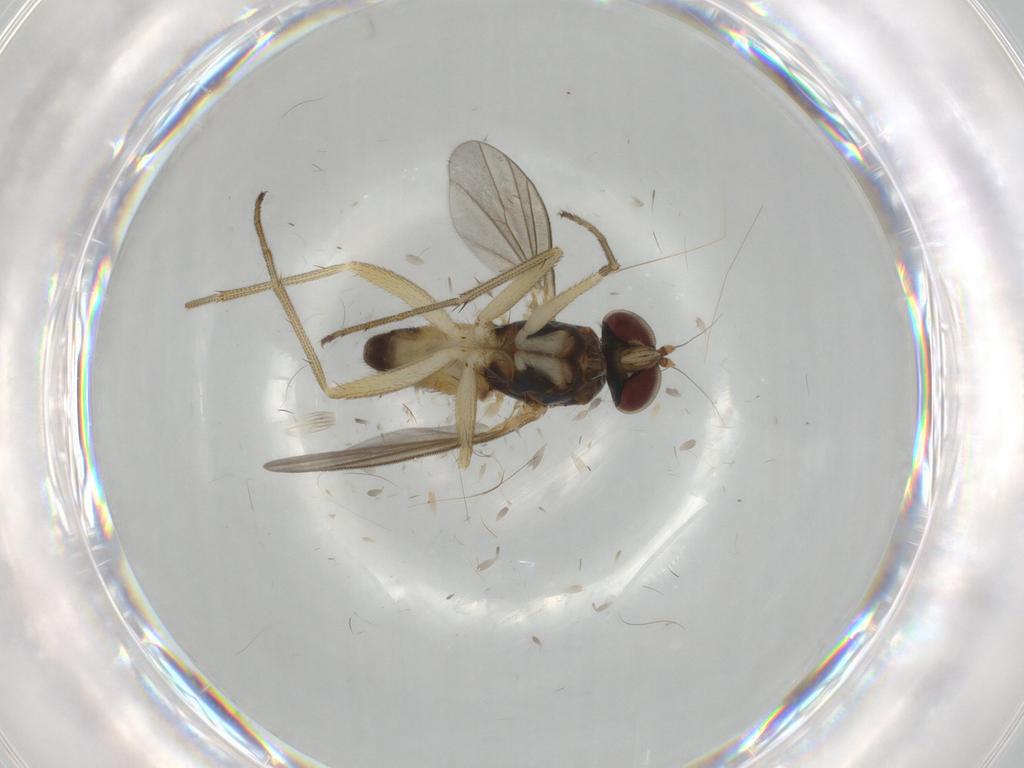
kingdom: Animalia
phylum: Arthropoda
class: Insecta
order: Diptera
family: Dolichopodidae
